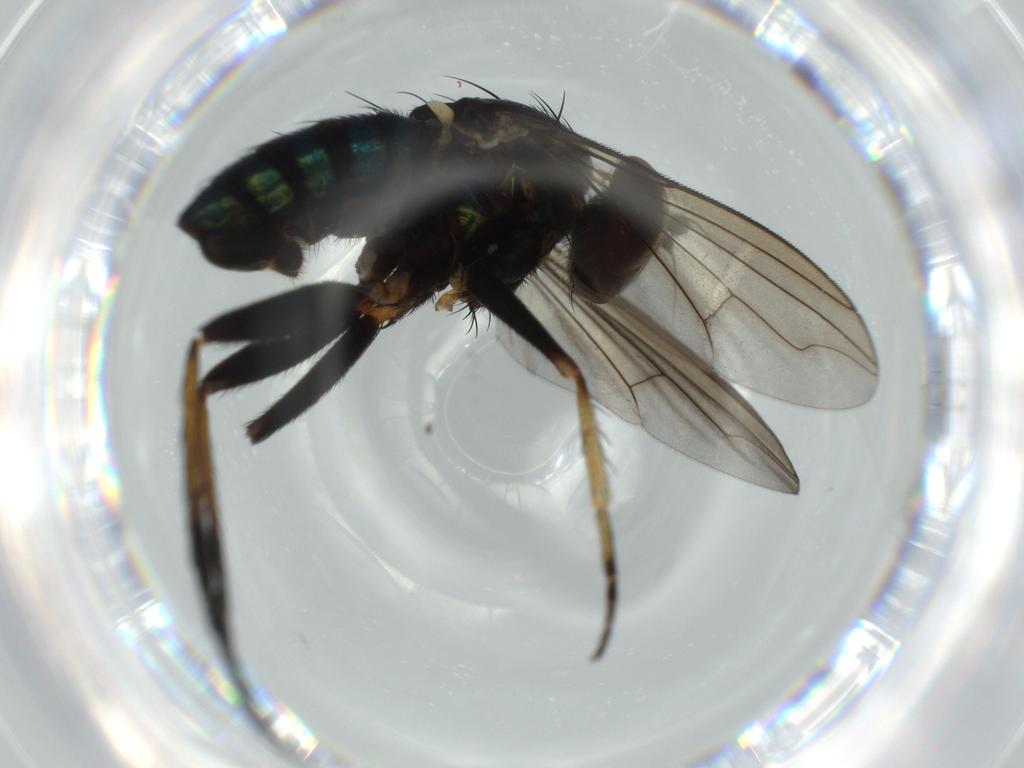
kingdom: Animalia
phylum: Arthropoda
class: Insecta
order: Diptera
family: Dolichopodidae
